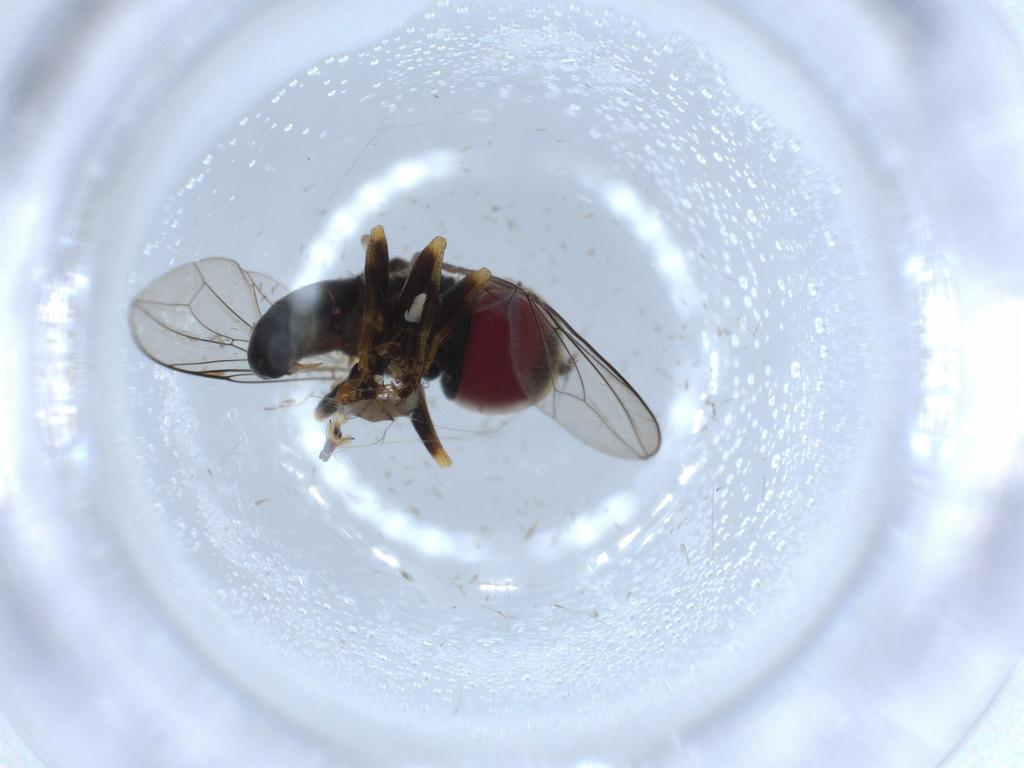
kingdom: Animalia
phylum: Arthropoda
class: Insecta
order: Diptera
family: Pipunculidae
